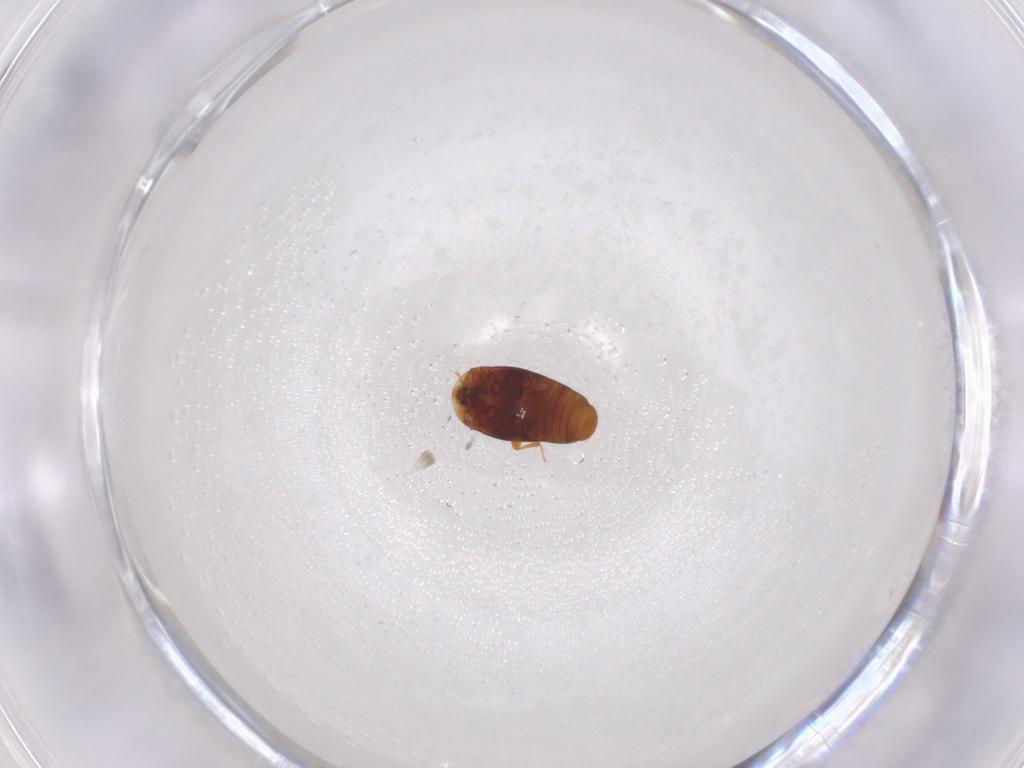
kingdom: Animalia
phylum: Arthropoda
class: Insecta
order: Coleoptera
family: Corylophidae
